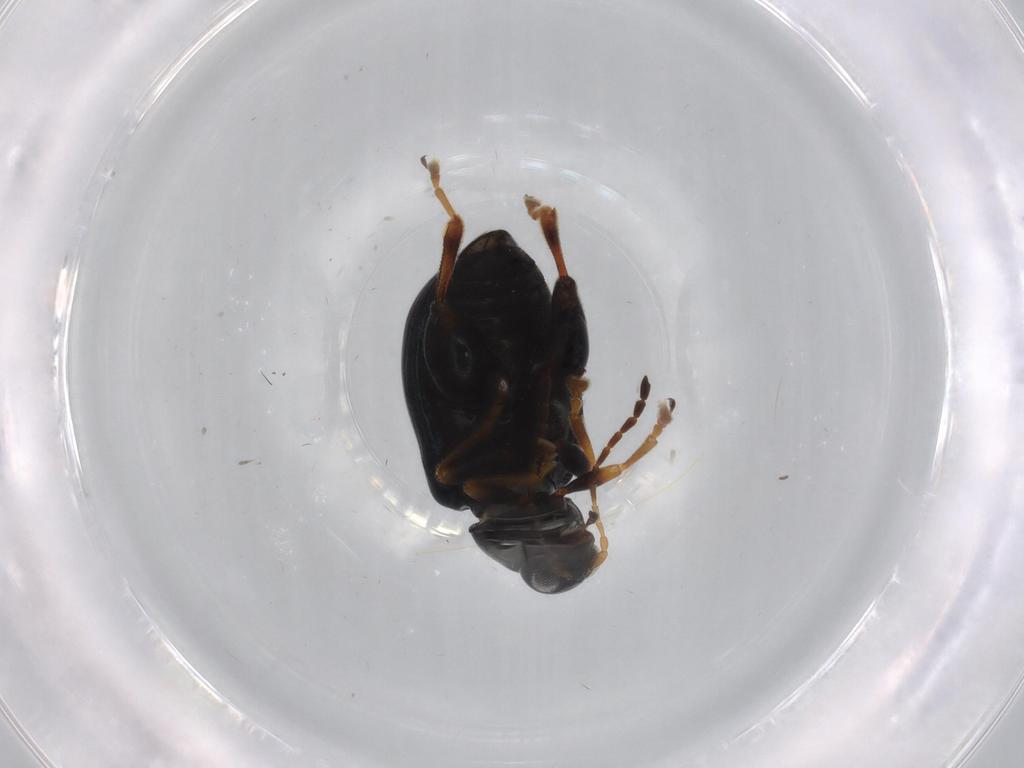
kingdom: Animalia
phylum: Arthropoda
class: Insecta
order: Coleoptera
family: Chrysomelidae
